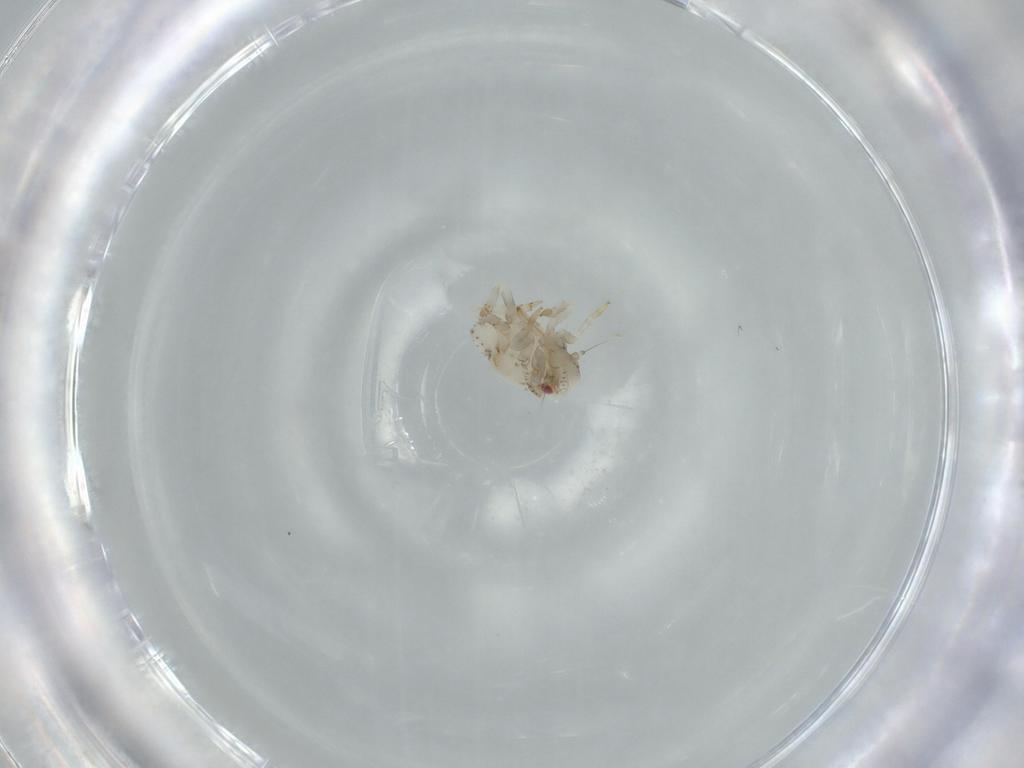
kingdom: Animalia
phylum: Arthropoda
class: Insecta
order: Hemiptera
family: Acanaloniidae
